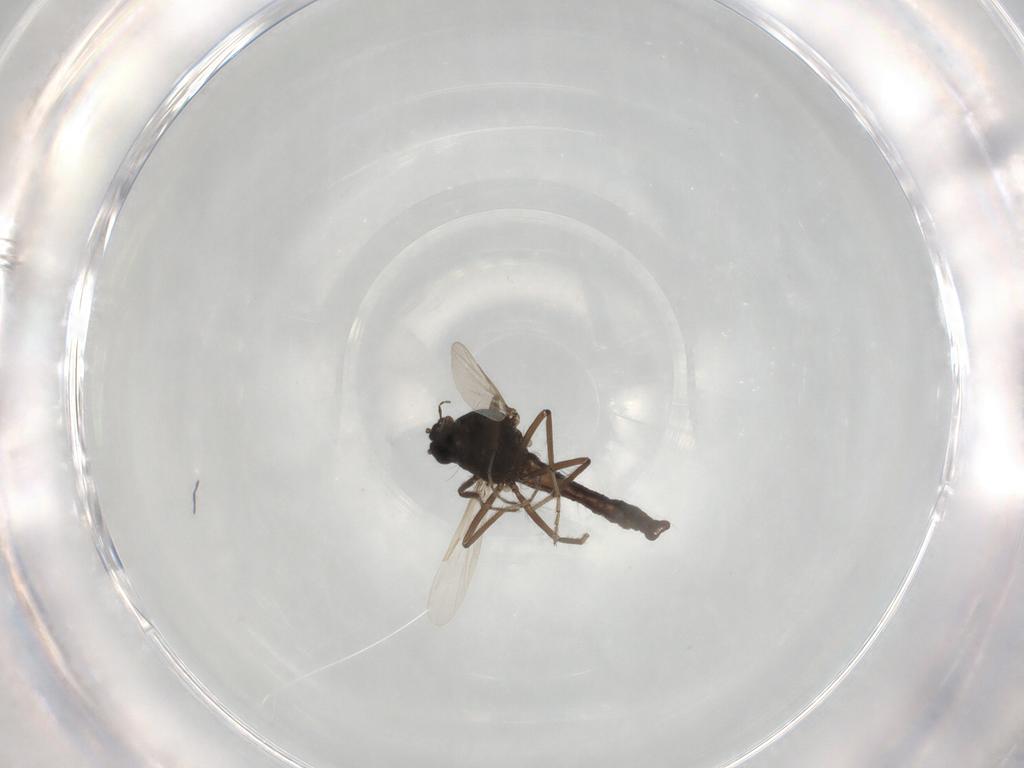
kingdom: Animalia
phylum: Arthropoda
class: Insecta
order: Diptera
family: Ceratopogonidae
